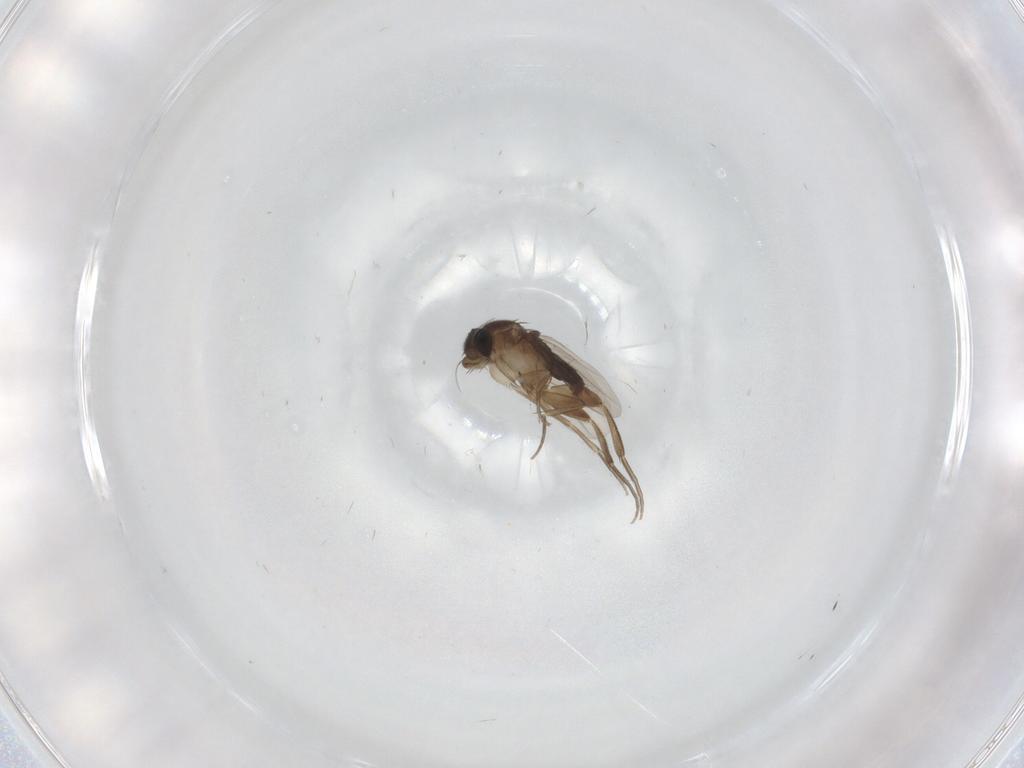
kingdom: Animalia
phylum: Arthropoda
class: Insecta
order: Diptera
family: Phoridae
